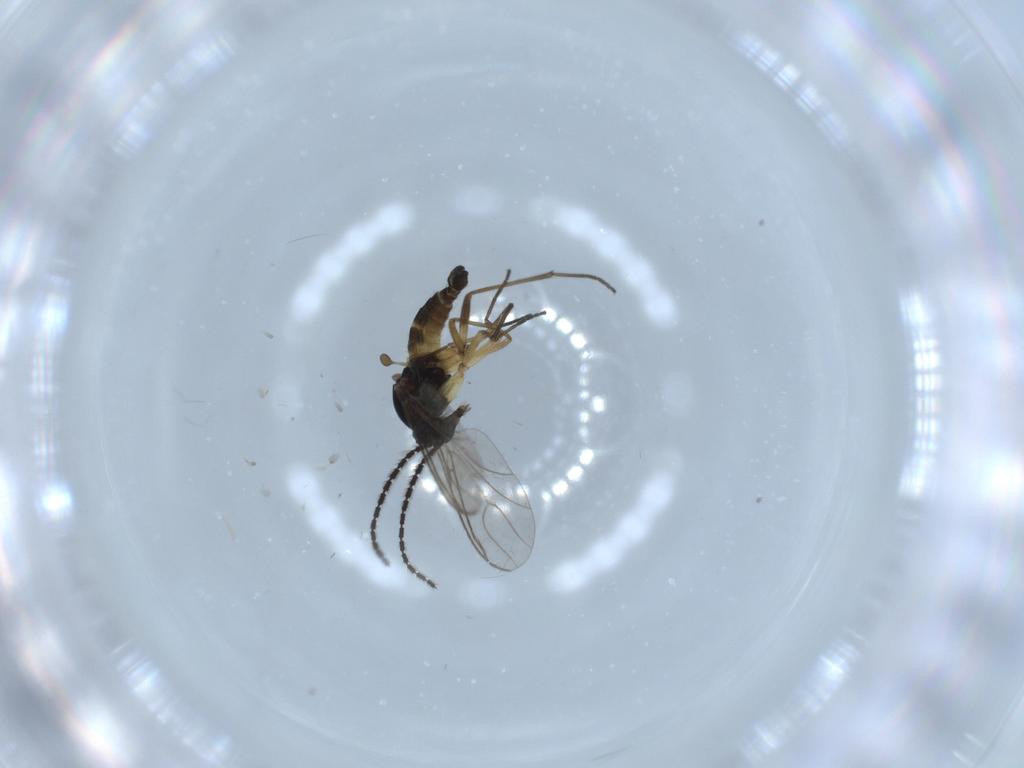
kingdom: Animalia
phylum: Arthropoda
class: Insecta
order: Diptera
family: Sciaridae
